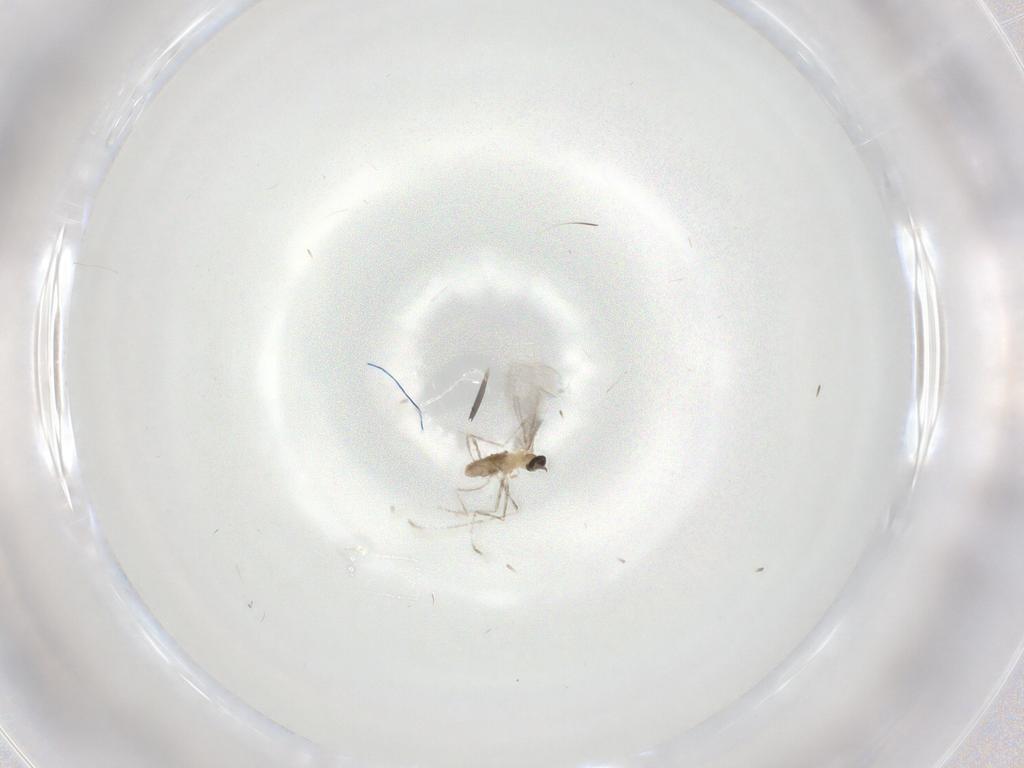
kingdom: Animalia
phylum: Arthropoda
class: Insecta
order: Diptera
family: Cecidomyiidae
